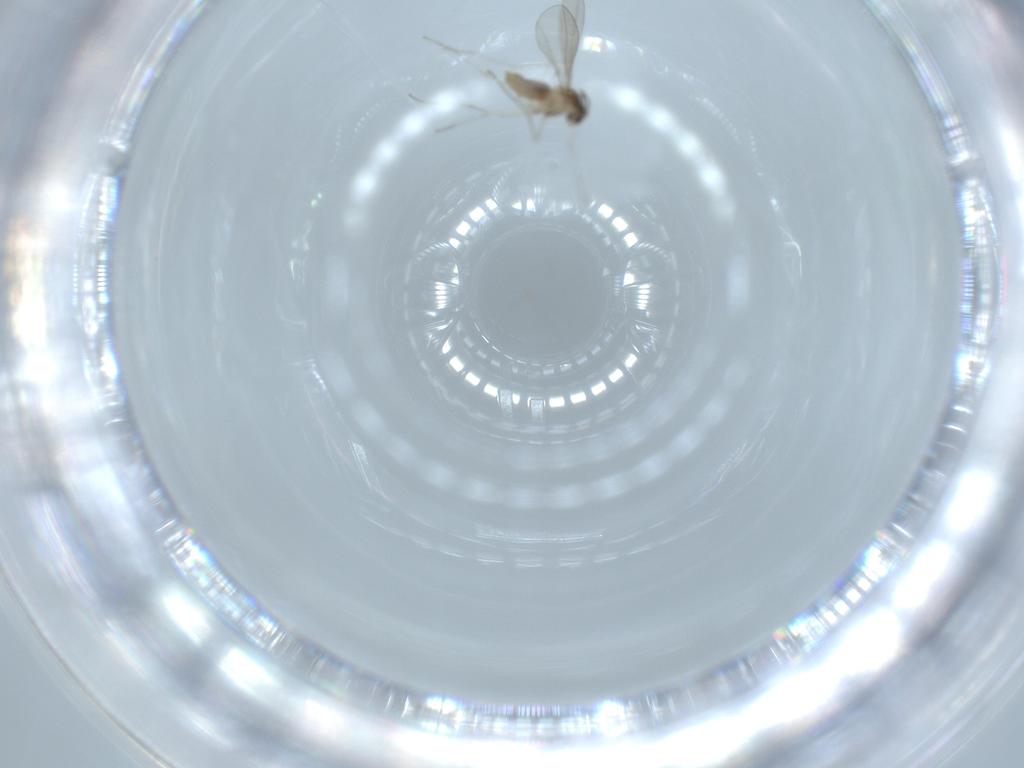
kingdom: Animalia
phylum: Arthropoda
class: Insecta
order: Diptera
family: Cecidomyiidae
